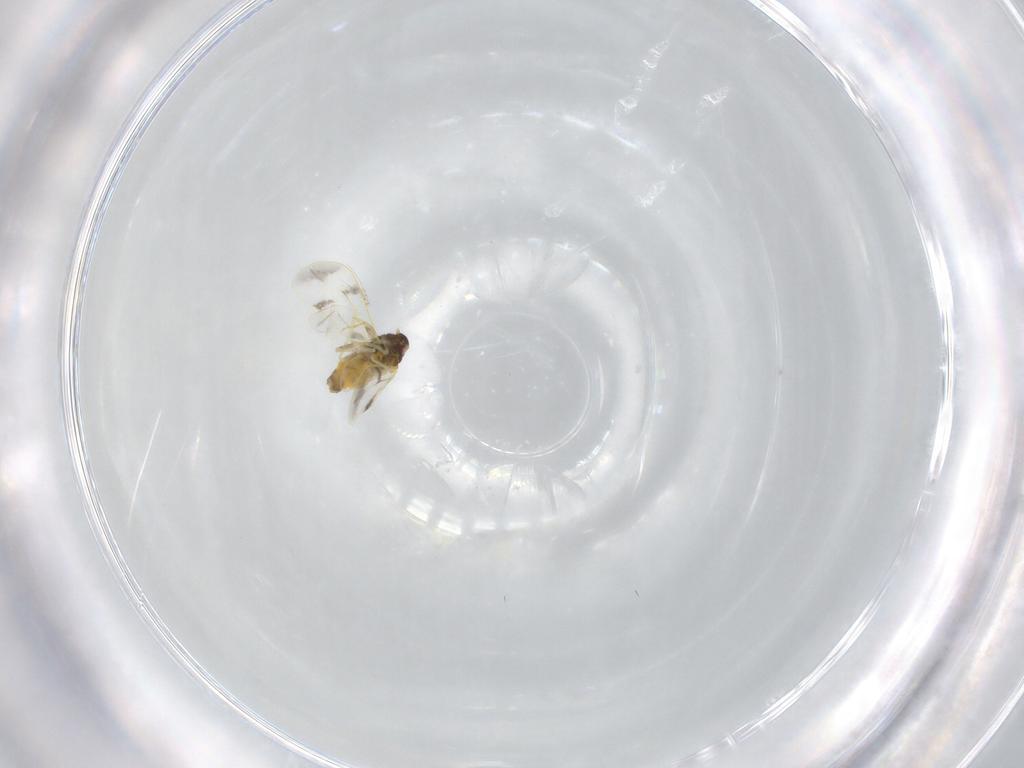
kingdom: Animalia
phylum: Arthropoda
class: Insecta
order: Hemiptera
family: Aleyrodidae
